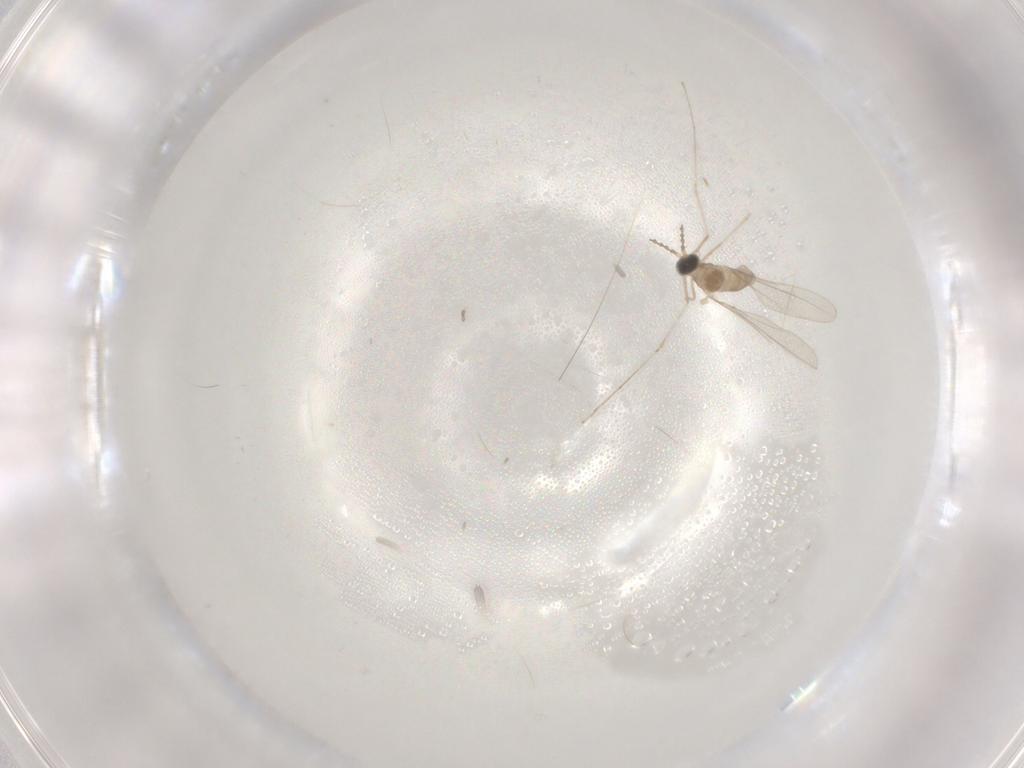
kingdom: Animalia
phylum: Arthropoda
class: Insecta
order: Diptera
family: Cecidomyiidae
